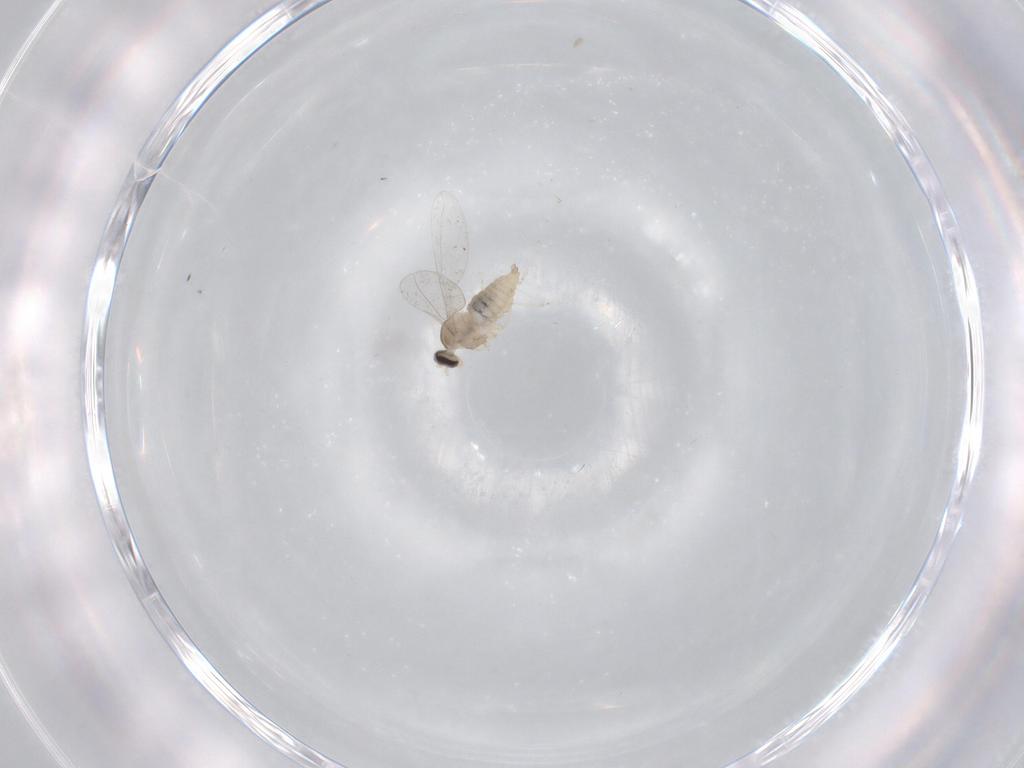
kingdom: Animalia
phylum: Arthropoda
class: Insecta
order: Diptera
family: Cecidomyiidae
